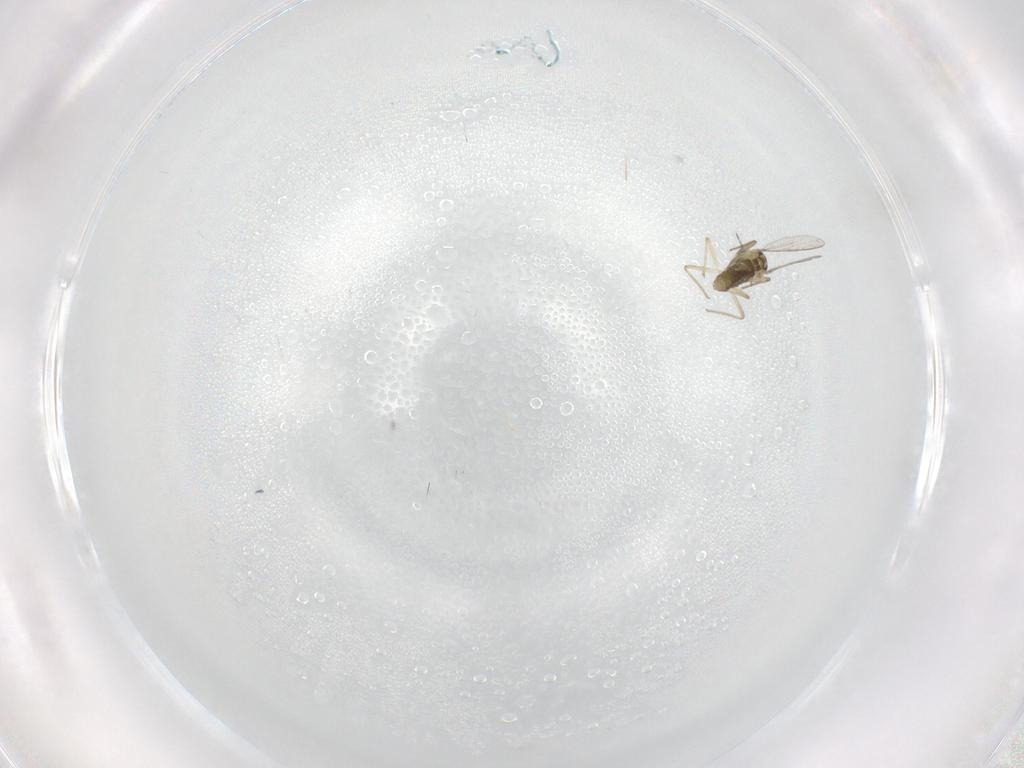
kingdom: Animalia
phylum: Arthropoda
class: Insecta
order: Diptera
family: Chironomidae
